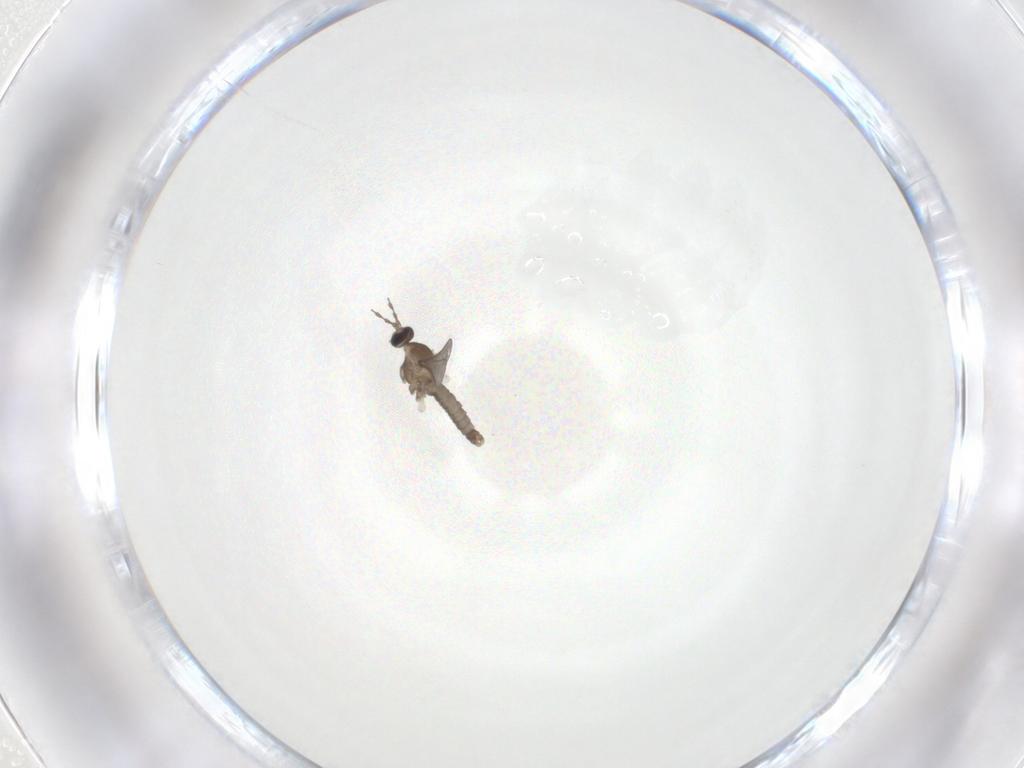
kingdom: Animalia
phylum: Arthropoda
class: Insecta
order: Diptera
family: Cecidomyiidae
